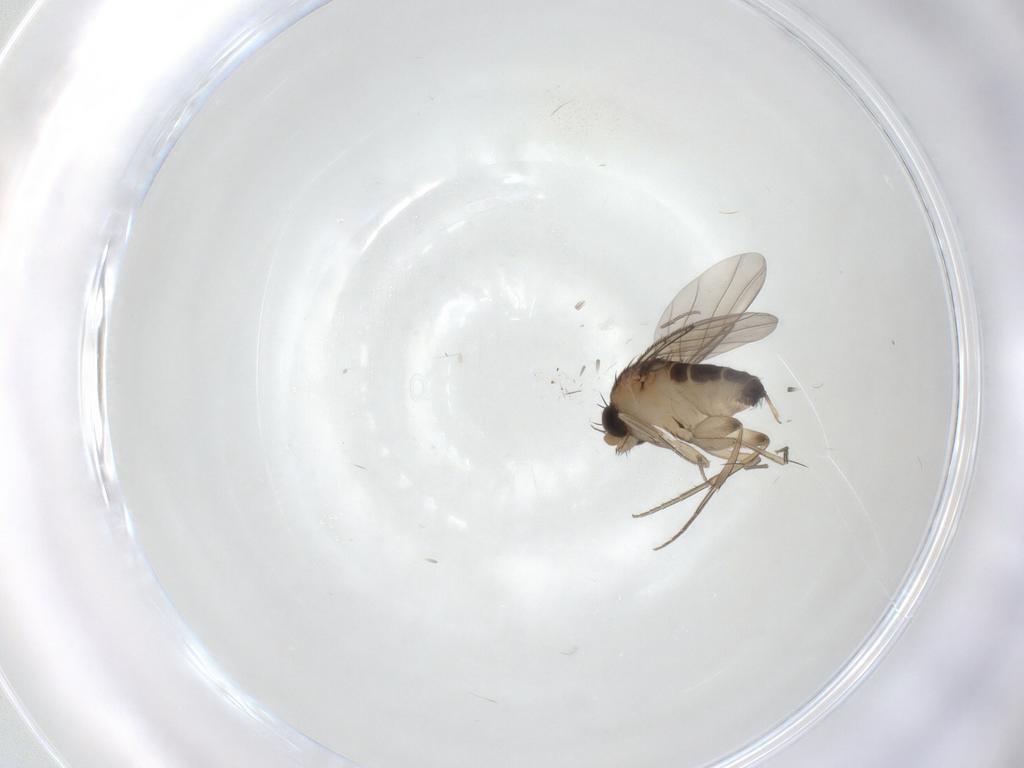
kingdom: Animalia
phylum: Arthropoda
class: Insecta
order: Diptera
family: Phoridae
